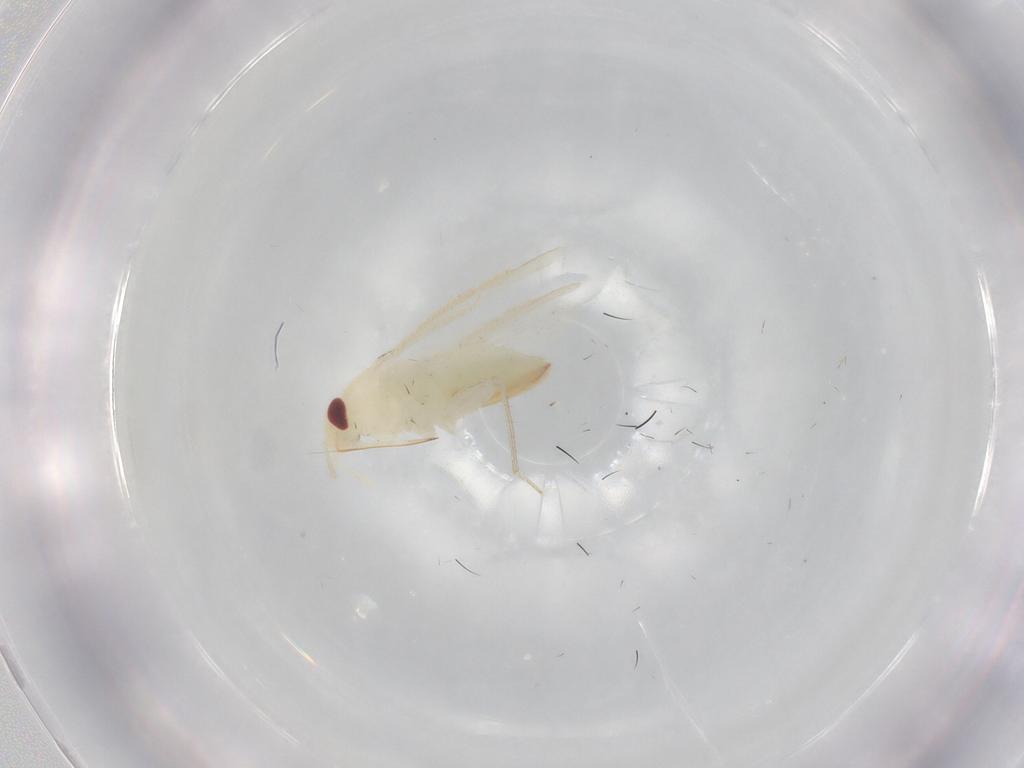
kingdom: Animalia
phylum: Arthropoda
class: Insecta
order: Hemiptera
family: Miridae
